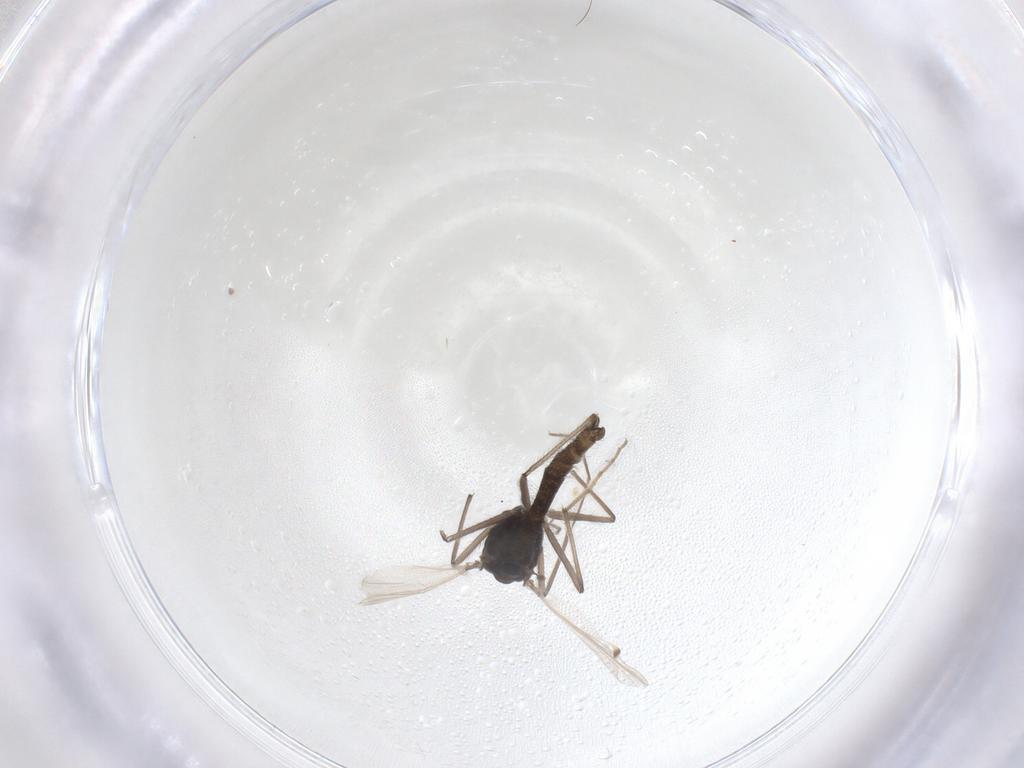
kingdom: Animalia
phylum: Arthropoda
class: Insecta
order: Diptera
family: Chironomidae
